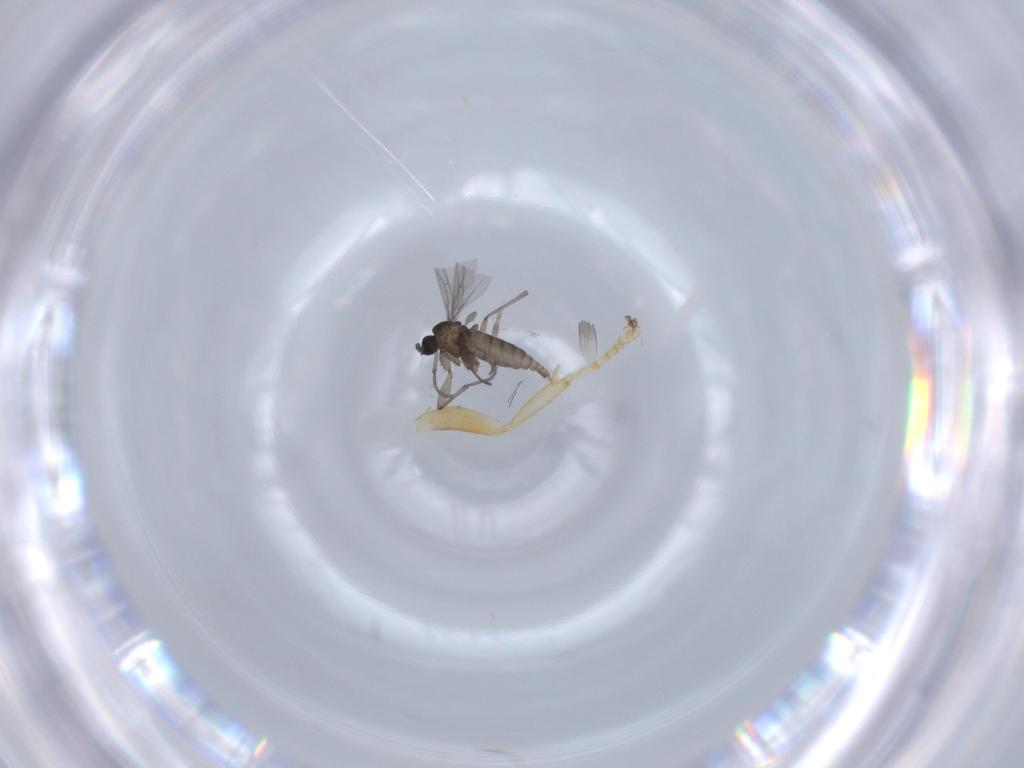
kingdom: Animalia
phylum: Arthropoda
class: Insecta
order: Diptera
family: Sciaridae
